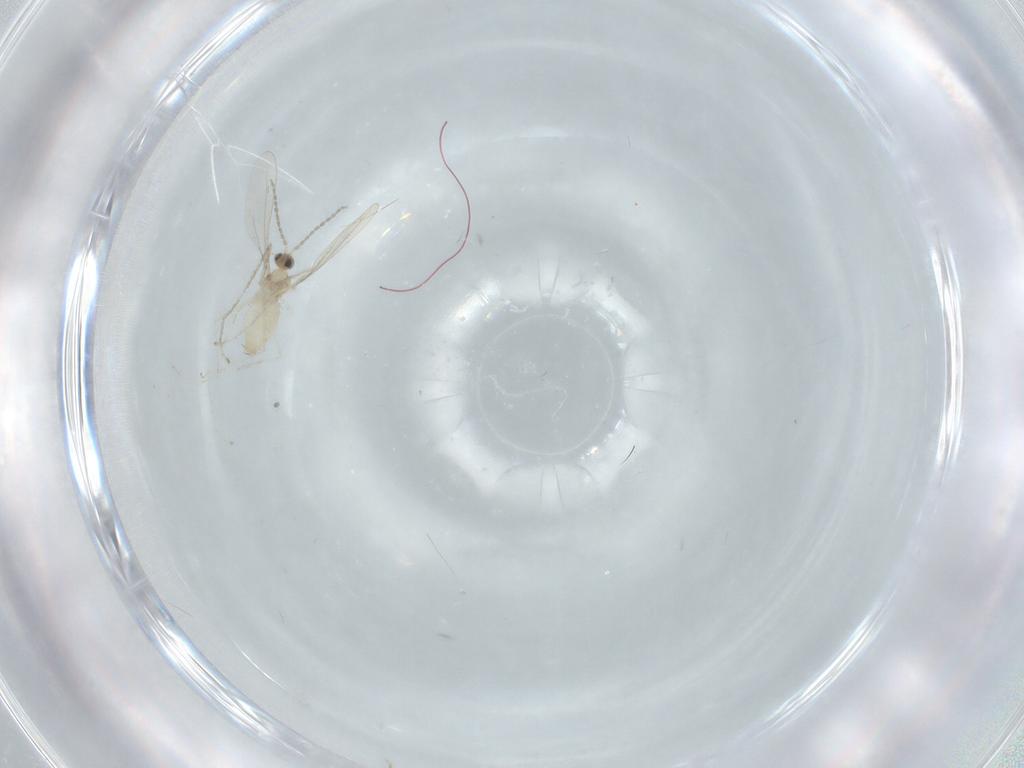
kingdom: Animalia
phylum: Arthropoda
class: Insecta
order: Diptera
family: Cecidomyiidae
